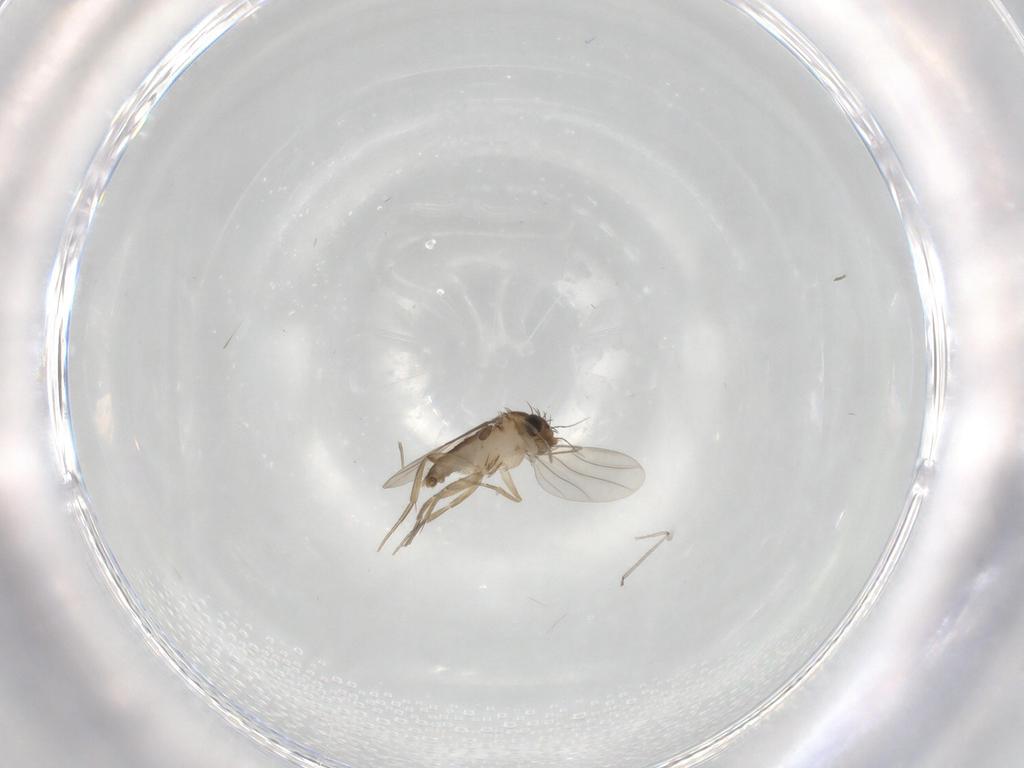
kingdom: Animalia
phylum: Arthropoda
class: Insecta
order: Diptera
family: Phoridae
